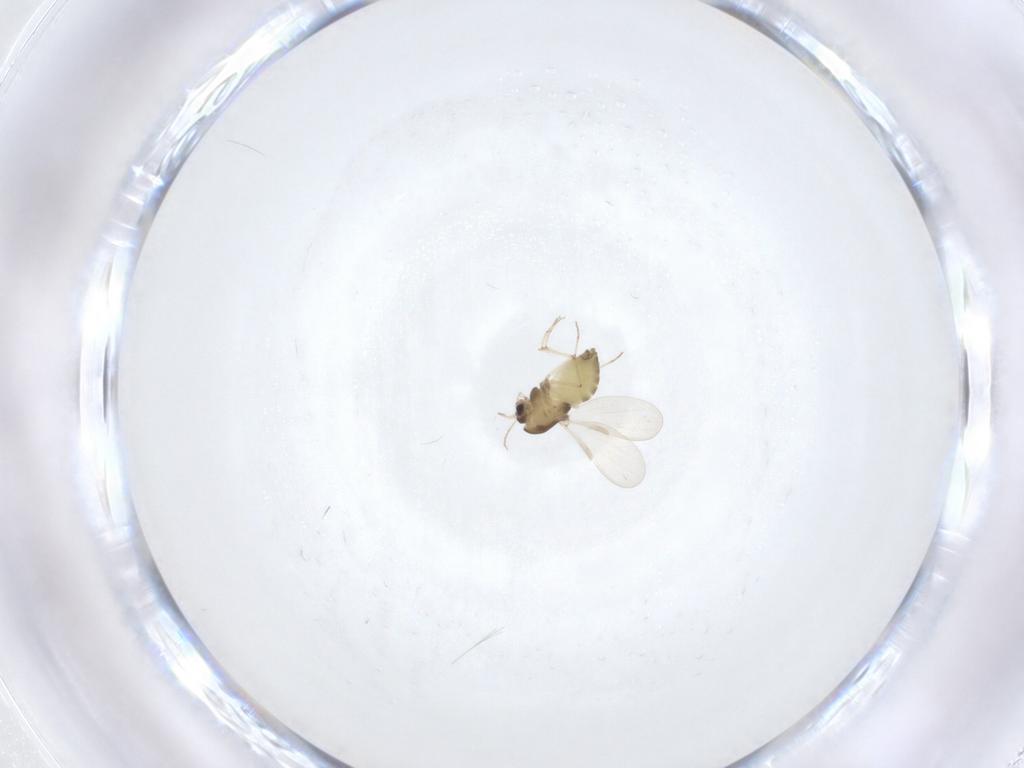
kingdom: Animalia
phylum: Arthropoda
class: Insecta
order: Diptera
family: Chironomidae
